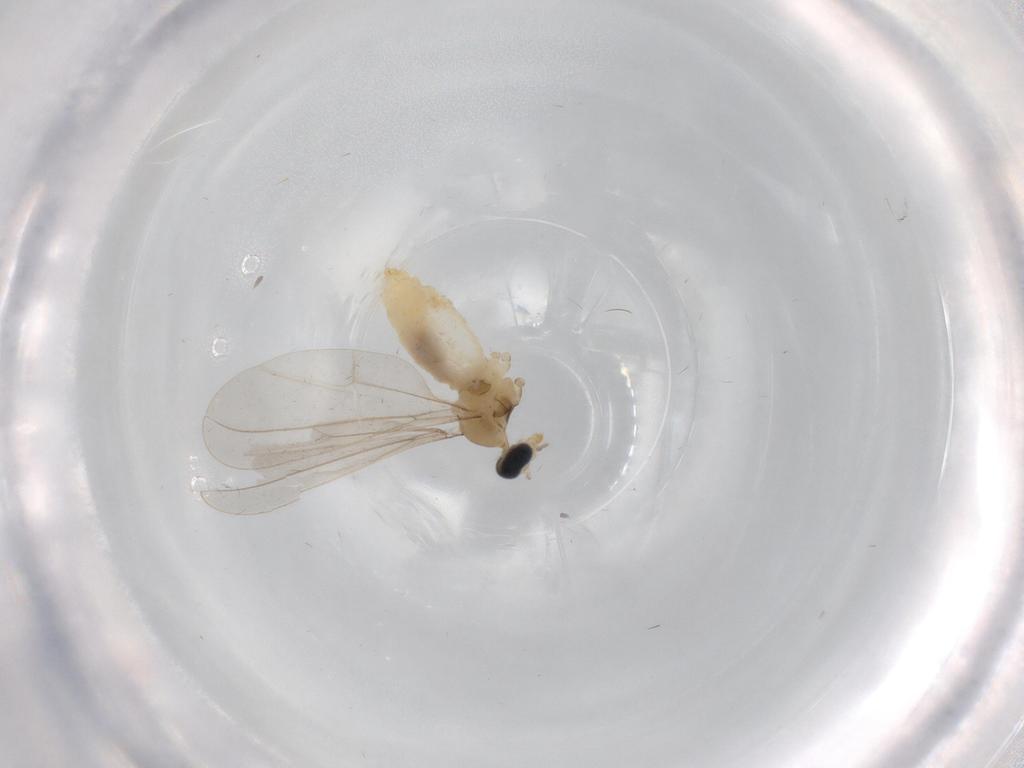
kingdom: Animalia
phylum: Arthropoda
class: Insecta
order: Diptera
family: Cecidomyiidae
